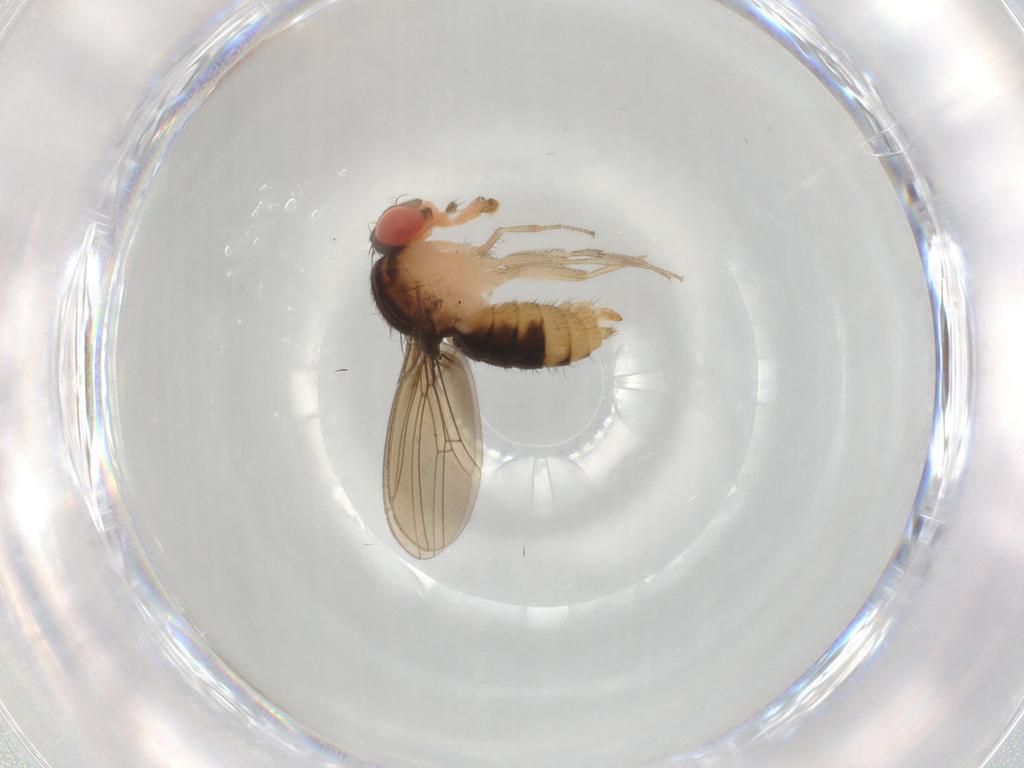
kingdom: Animalia
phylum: Arthropoda
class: Insecta
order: Diptera
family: Drosophilidae
